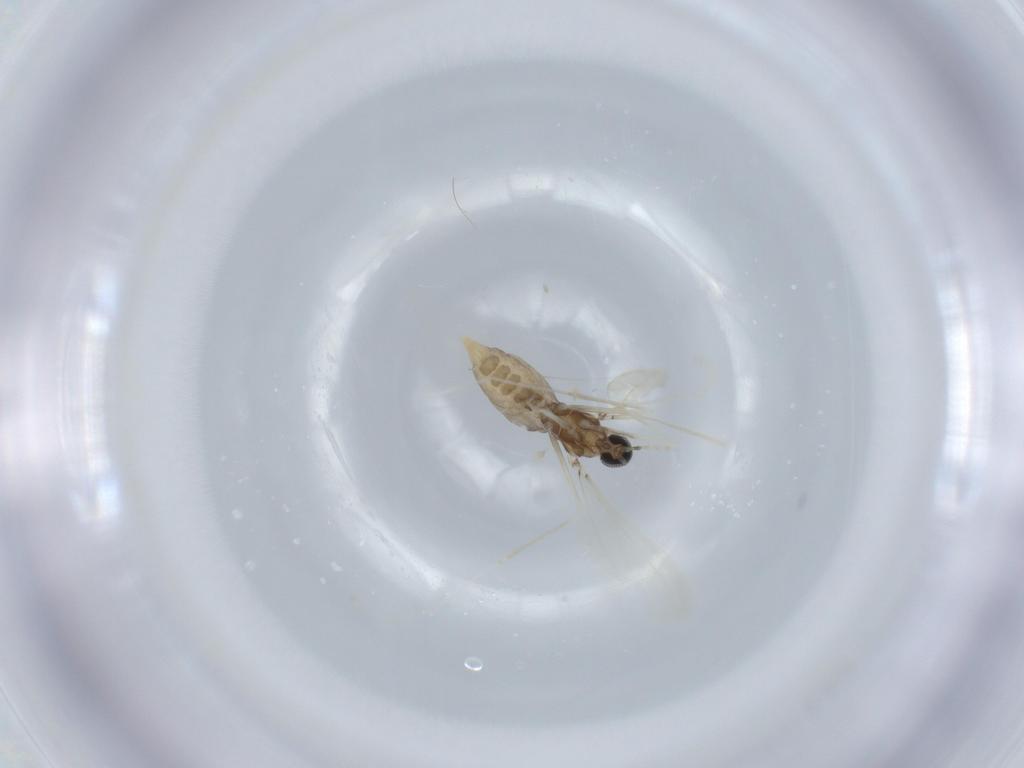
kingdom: Animalia
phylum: Arthropoda
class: Insecta
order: Diptera
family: Cecidomyiidae
